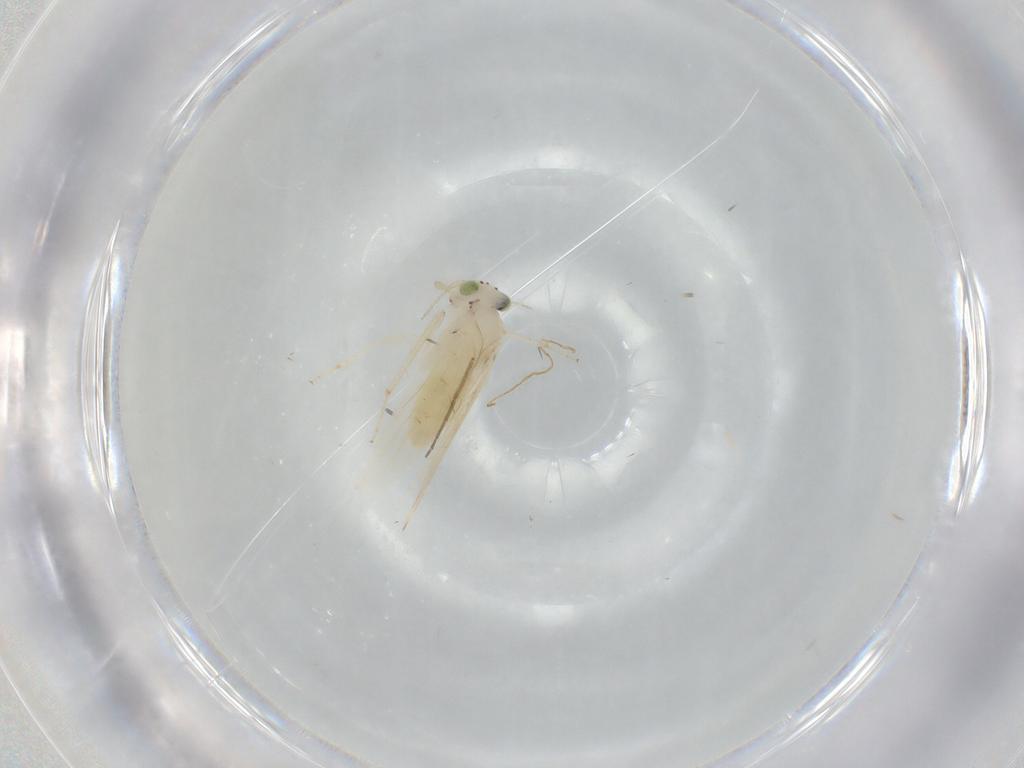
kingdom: Animalia
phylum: Arthropoda
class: Insecta
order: Psocodea
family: Lepidopsocidae
